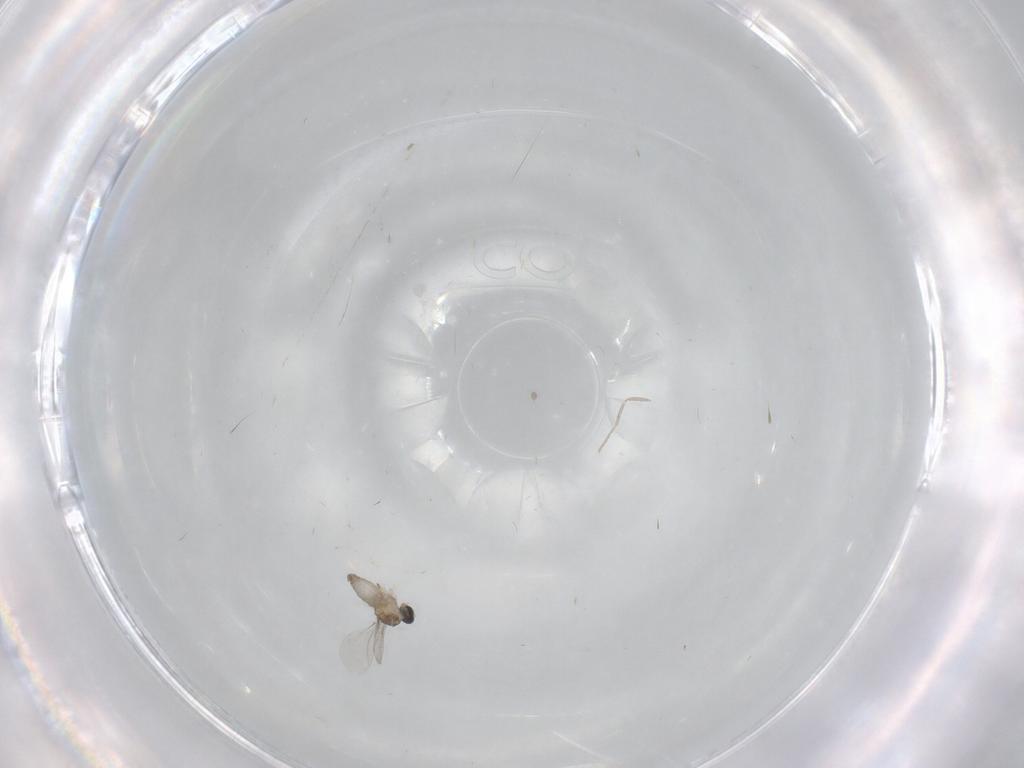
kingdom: Animalia
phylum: Arthropoda
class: Insecta
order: Diptera
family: Cecidomyiidae
